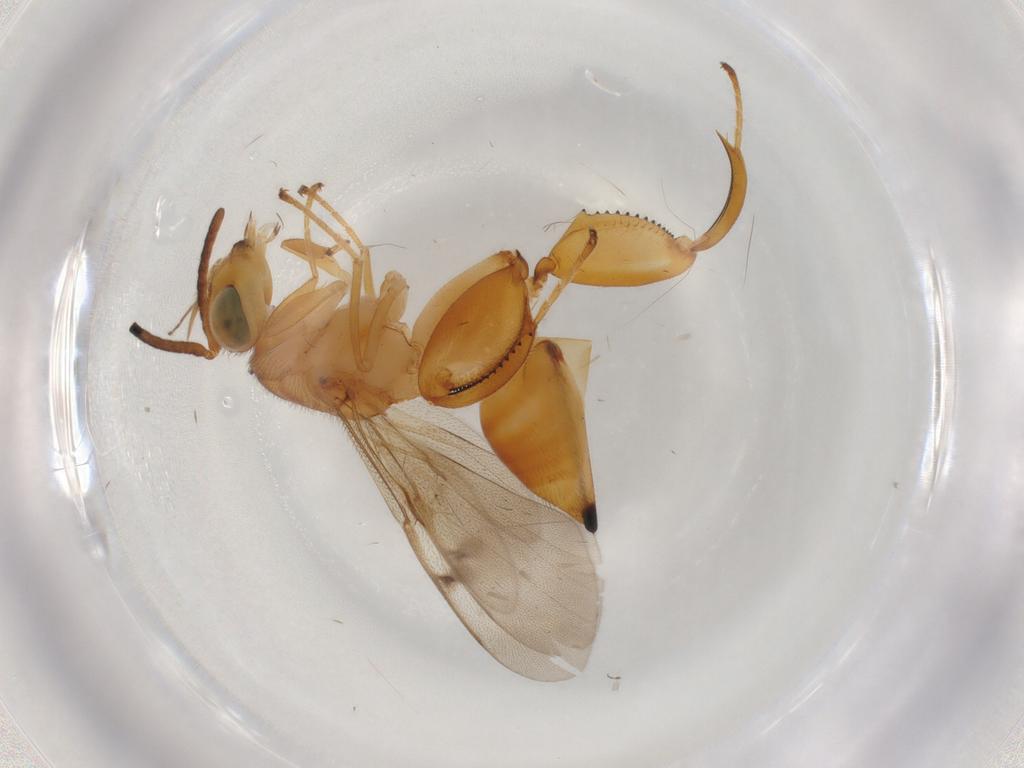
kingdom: Animalia
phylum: Arthropoda
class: Insecta
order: Hymenoptera
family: Chalcididae
